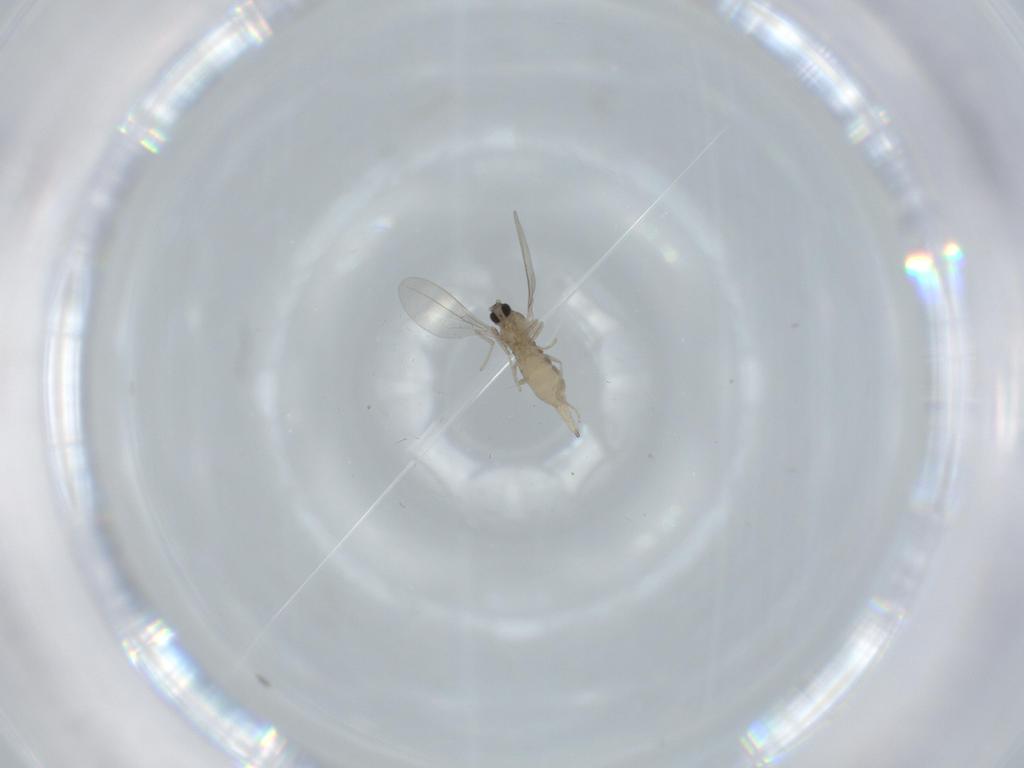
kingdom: Animalia
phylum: Arthropoda
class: Insecta
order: Diptera
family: Cecidomyiidae
